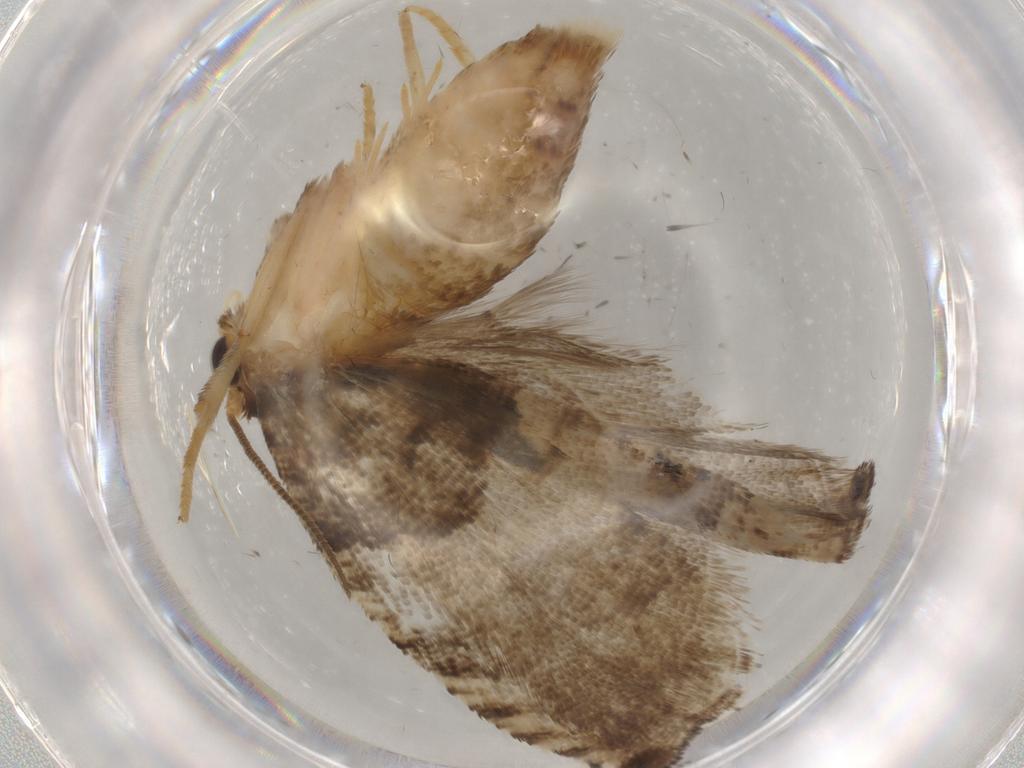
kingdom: Animalia
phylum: Arthropoda
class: Insecta
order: Lepidoptera
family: Tortricidae
